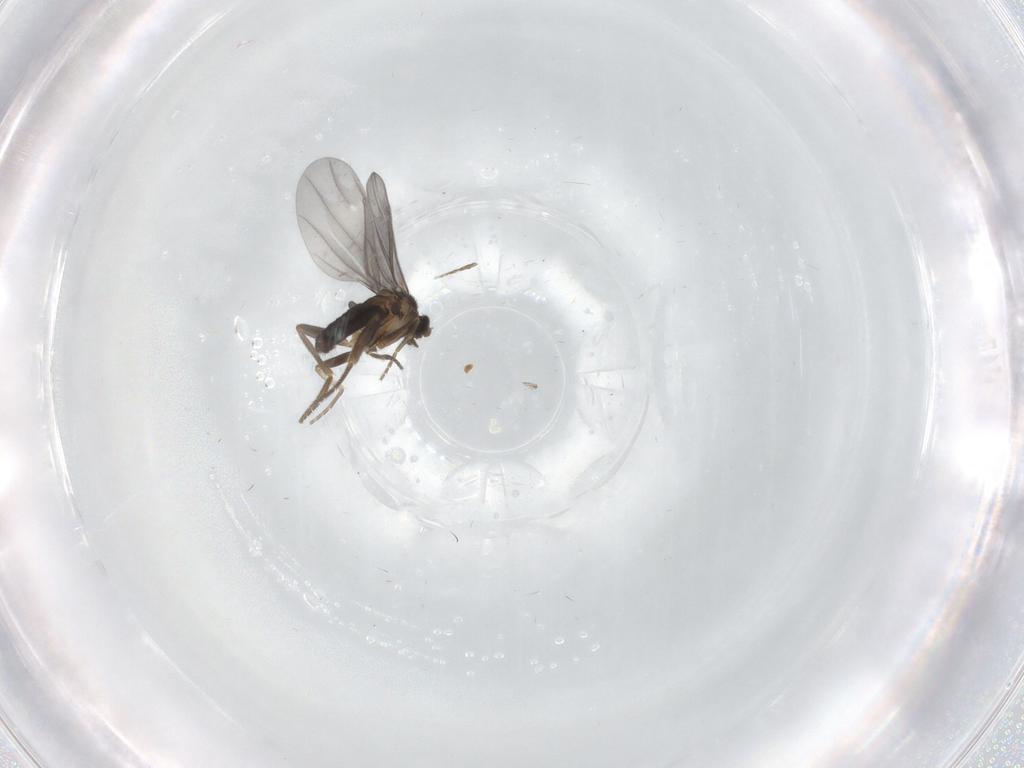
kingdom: Animalia
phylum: Arthropoda
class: Insecta
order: Diptera
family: Phoridae
